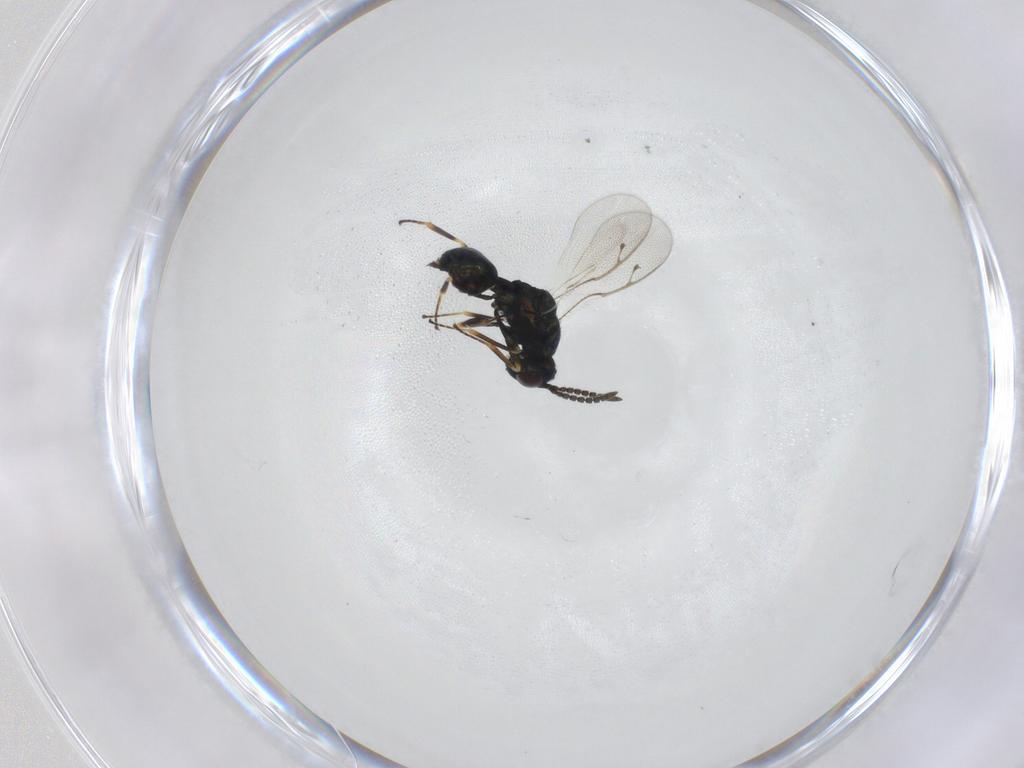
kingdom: Animalia
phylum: Arthropoda
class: Insecta
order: Hymenoptera
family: Pteromalidae
